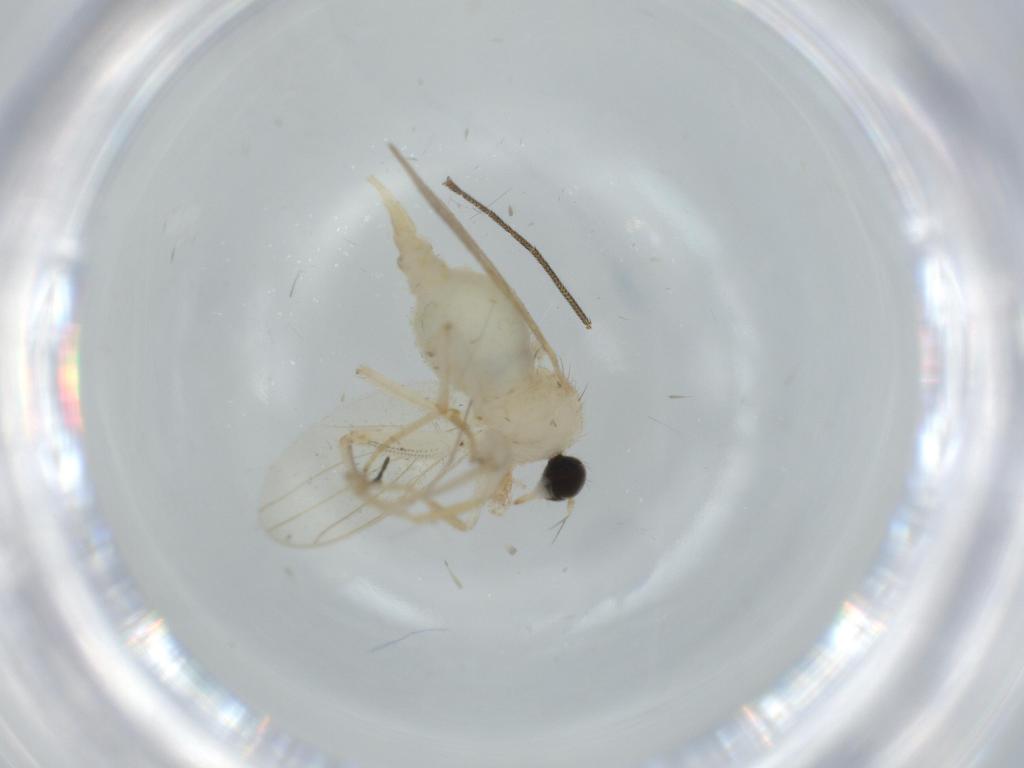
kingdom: Animalia
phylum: Arthropoda
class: Insecta
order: Diptera
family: Hybotidae
